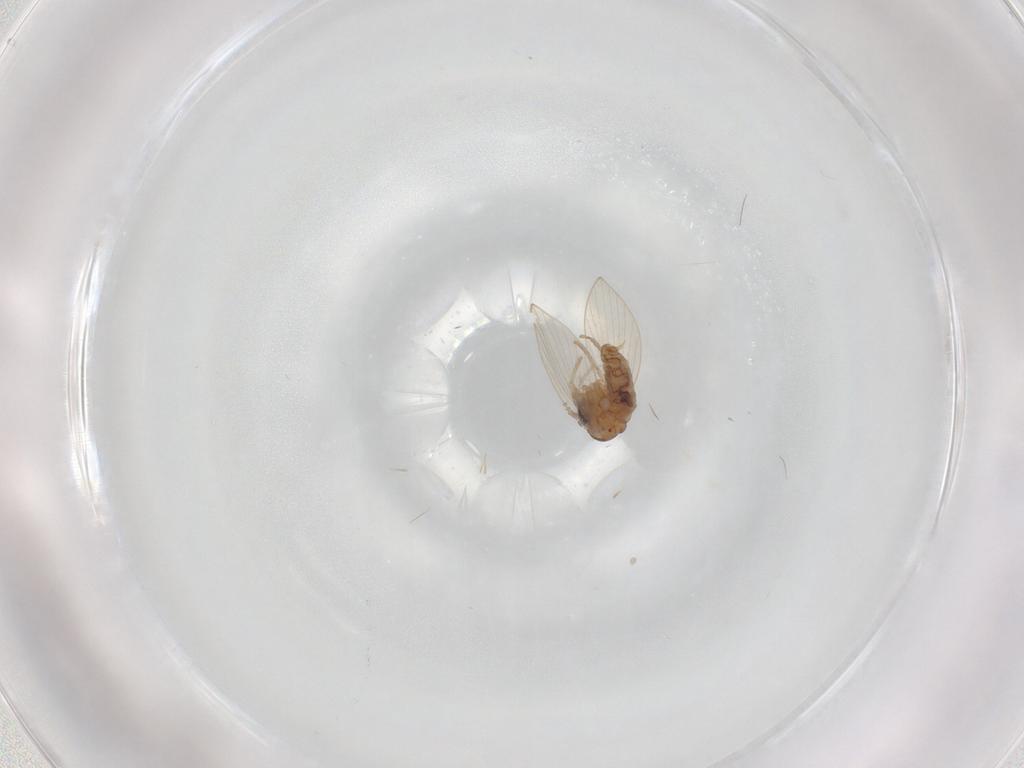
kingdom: Animalia
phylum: Arthropoda
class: Insecta
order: Diptera
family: Psychodidae
